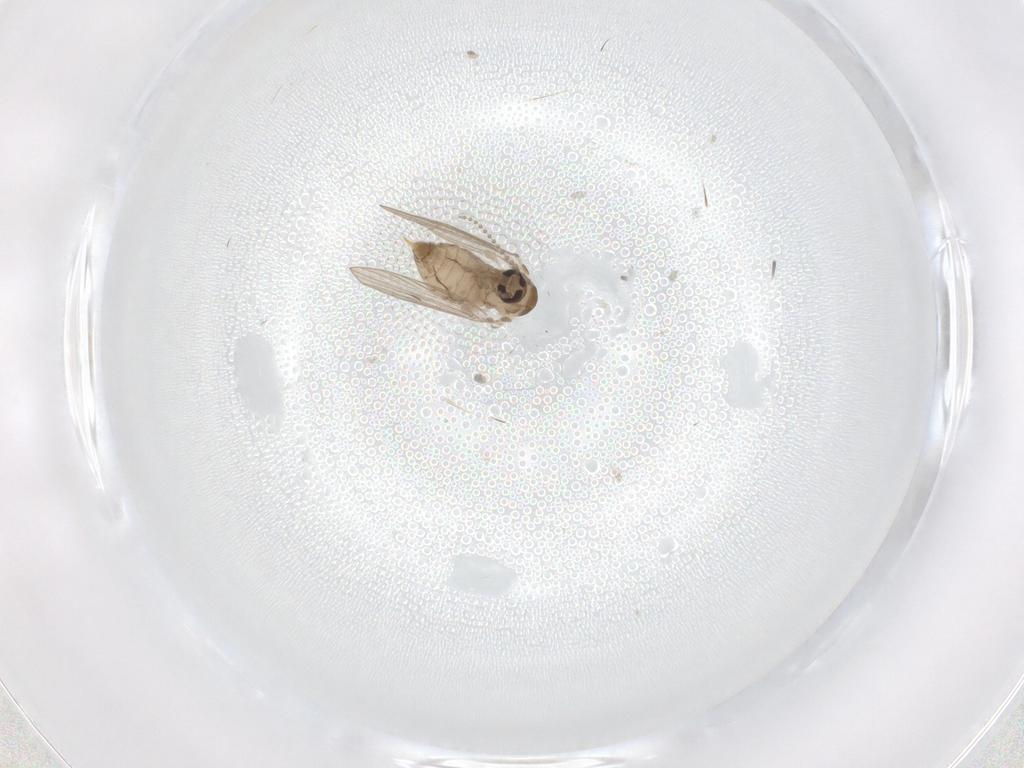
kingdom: Animalia
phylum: Arthropoda
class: Insecta
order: Diptera
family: Psychodidae
